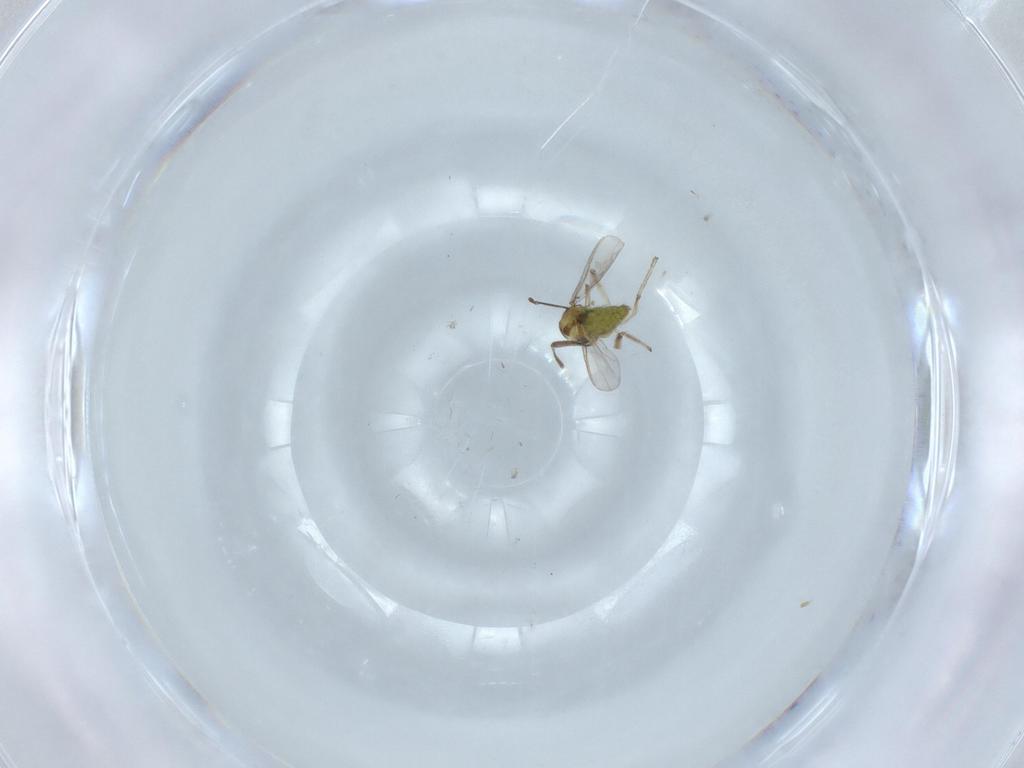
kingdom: Animalia
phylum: Arthropoda
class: Insecta
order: Diptera
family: Chironomidae
